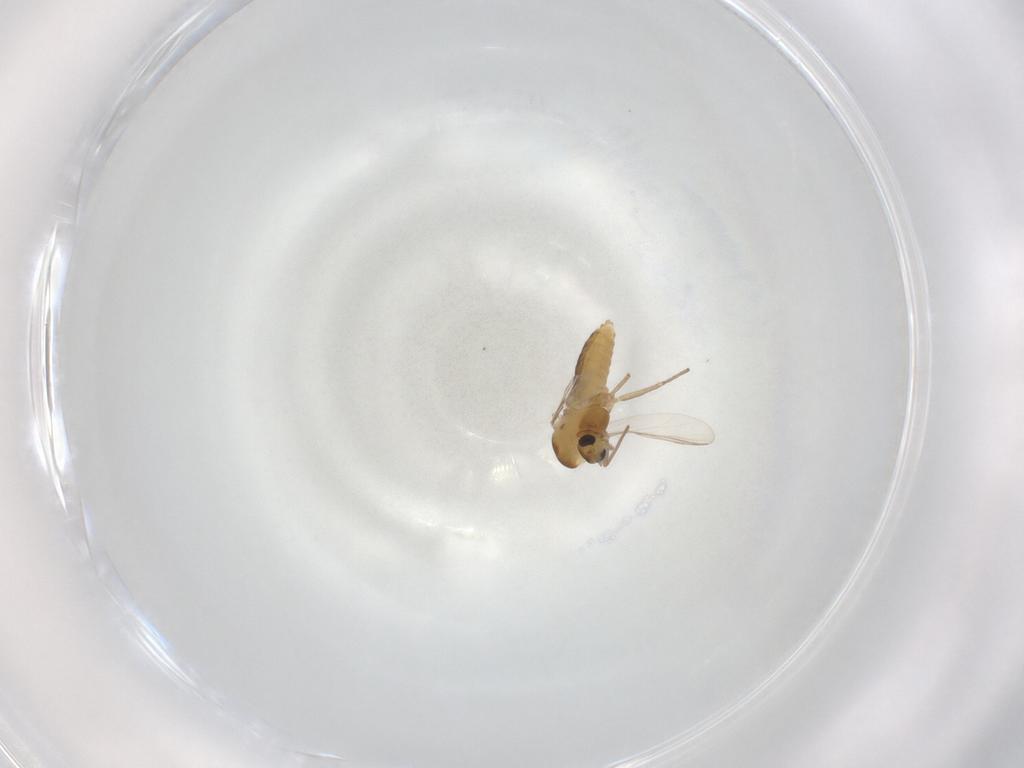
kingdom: Animalia
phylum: Arthropoda
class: Insecta
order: Diptera
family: Chironomidae
